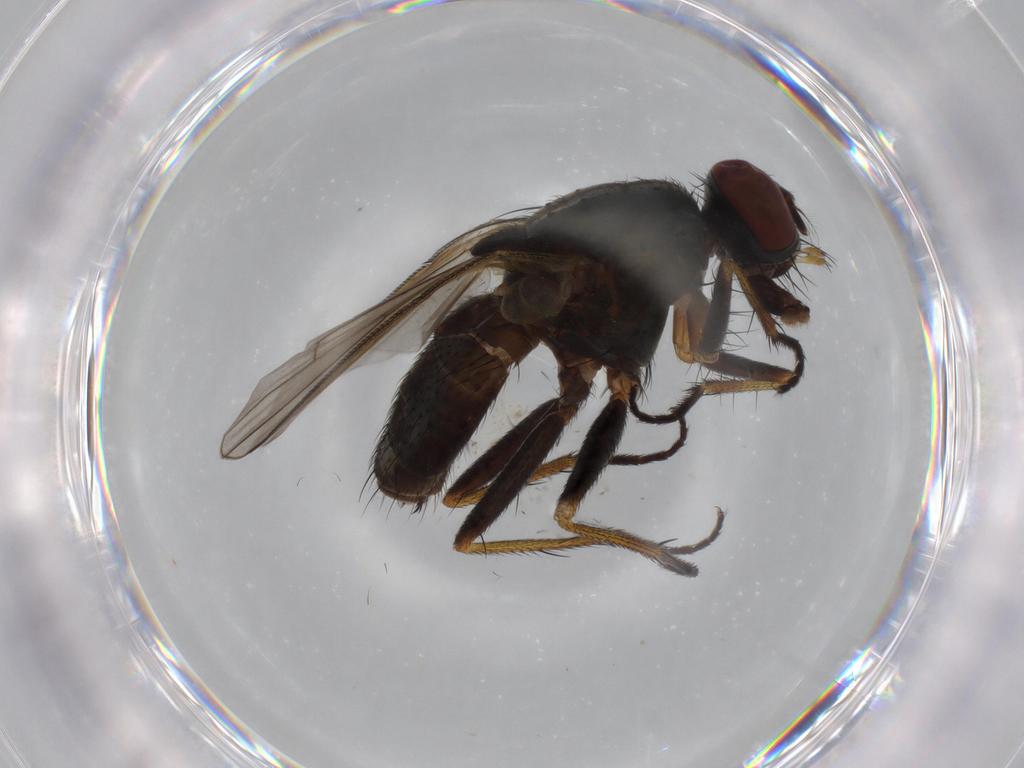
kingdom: Animalia
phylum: Arthropoda
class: Insecta
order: Diptera
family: Muscidae
